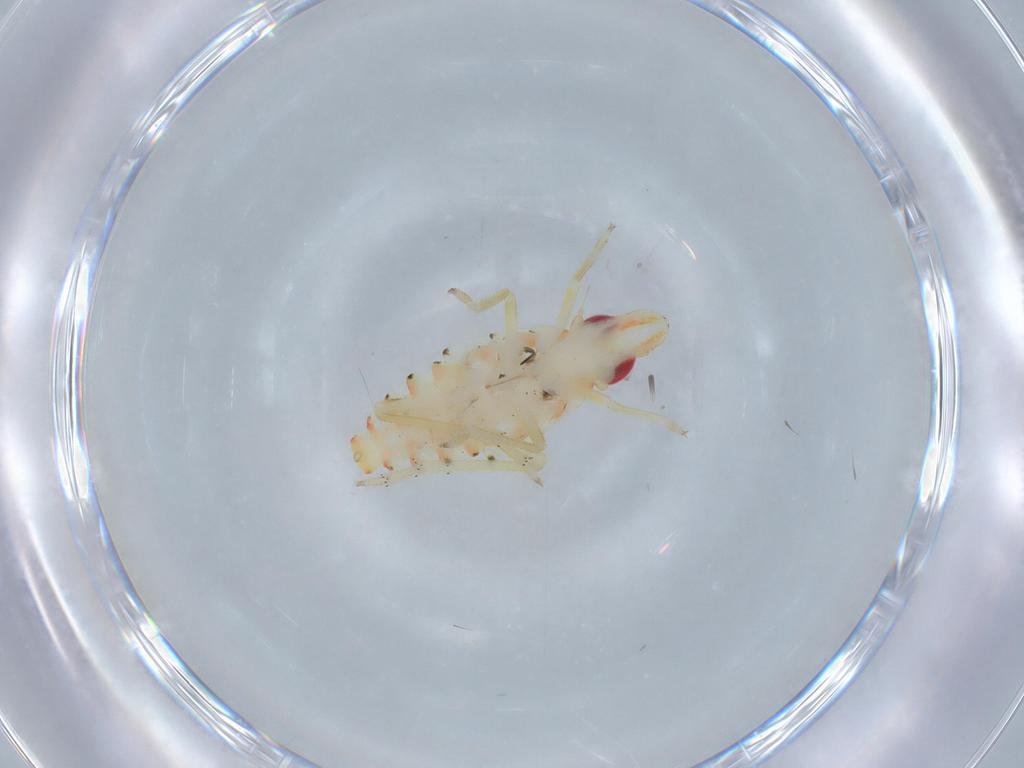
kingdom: Animalia
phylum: Arthropoda
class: Insecta
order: Hemiptera
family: Tropiduchidae
